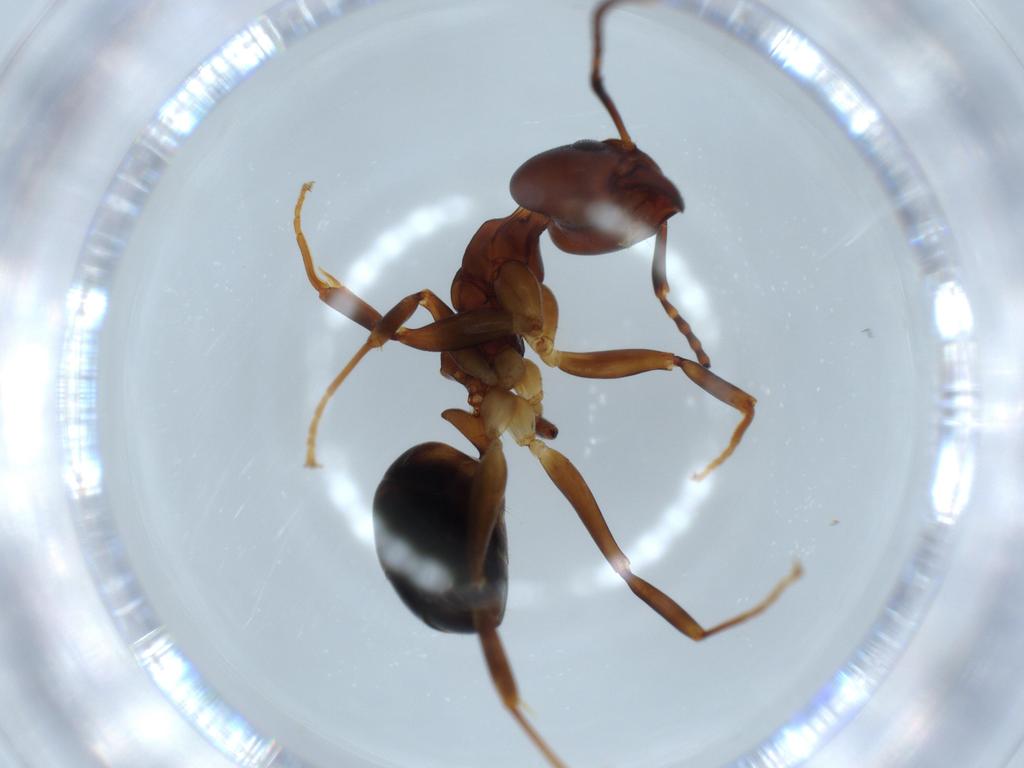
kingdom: Animalia
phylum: Arthropoda
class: Insecta
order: Hymenoptera
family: Formicidae
